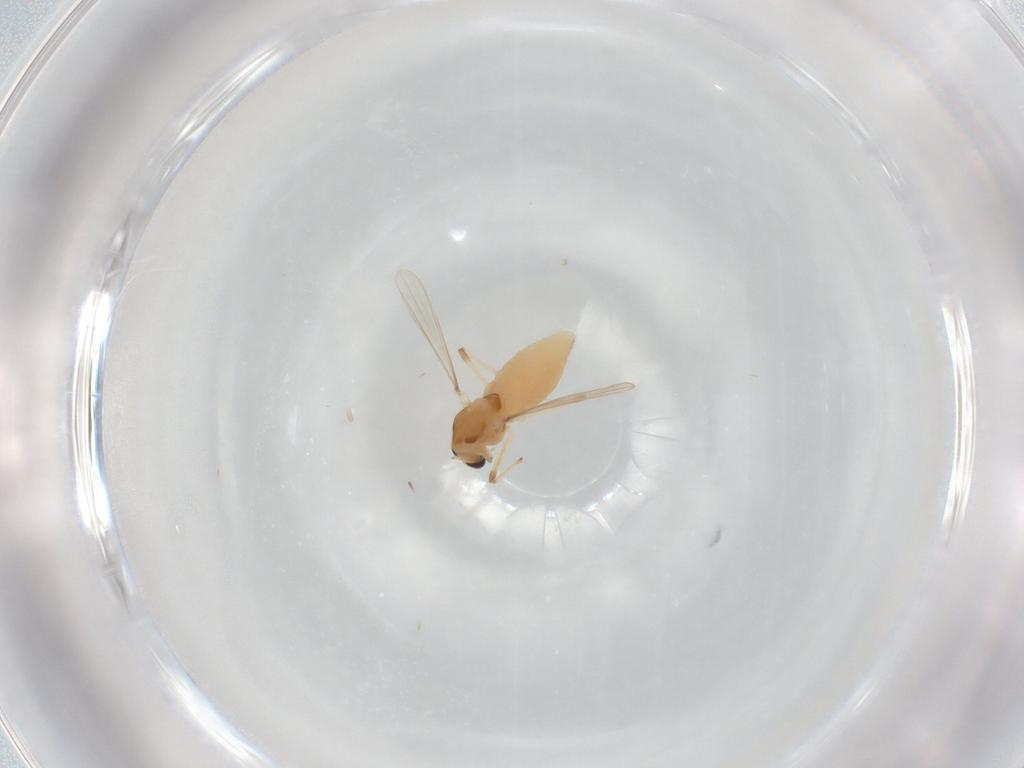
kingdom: Animalia
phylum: Arthropoda
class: Insecta
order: Diptera
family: Chironomidae
